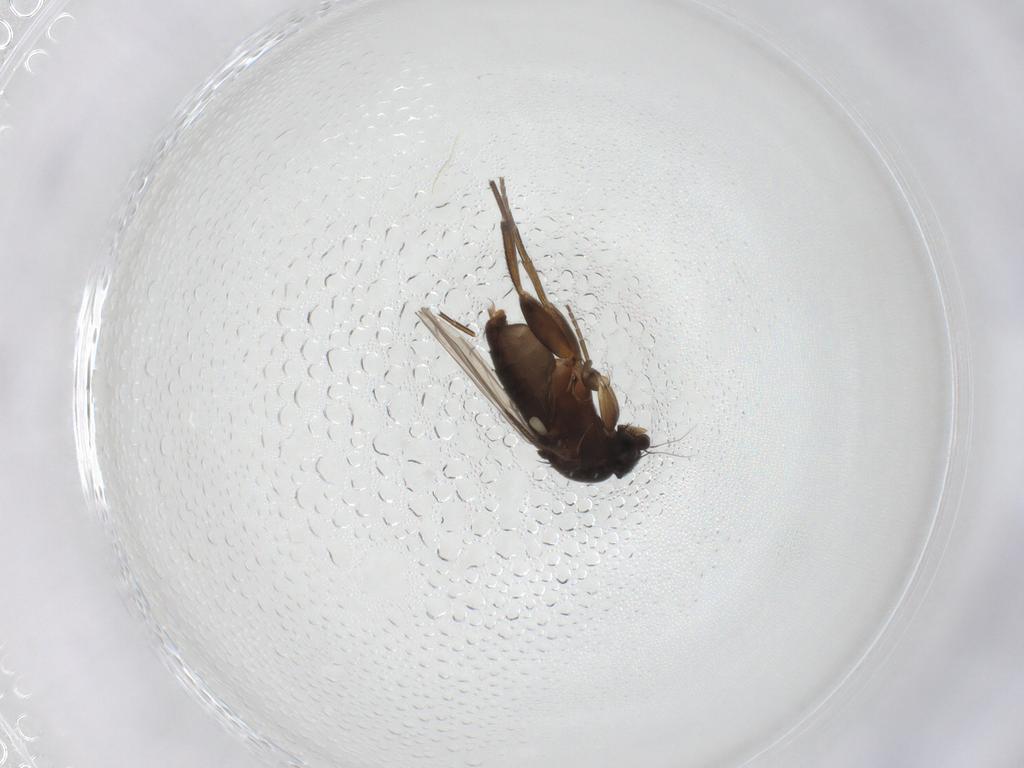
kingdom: Animalia
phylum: Arthropoda
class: Insecta
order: Diptera
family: Phoridae
